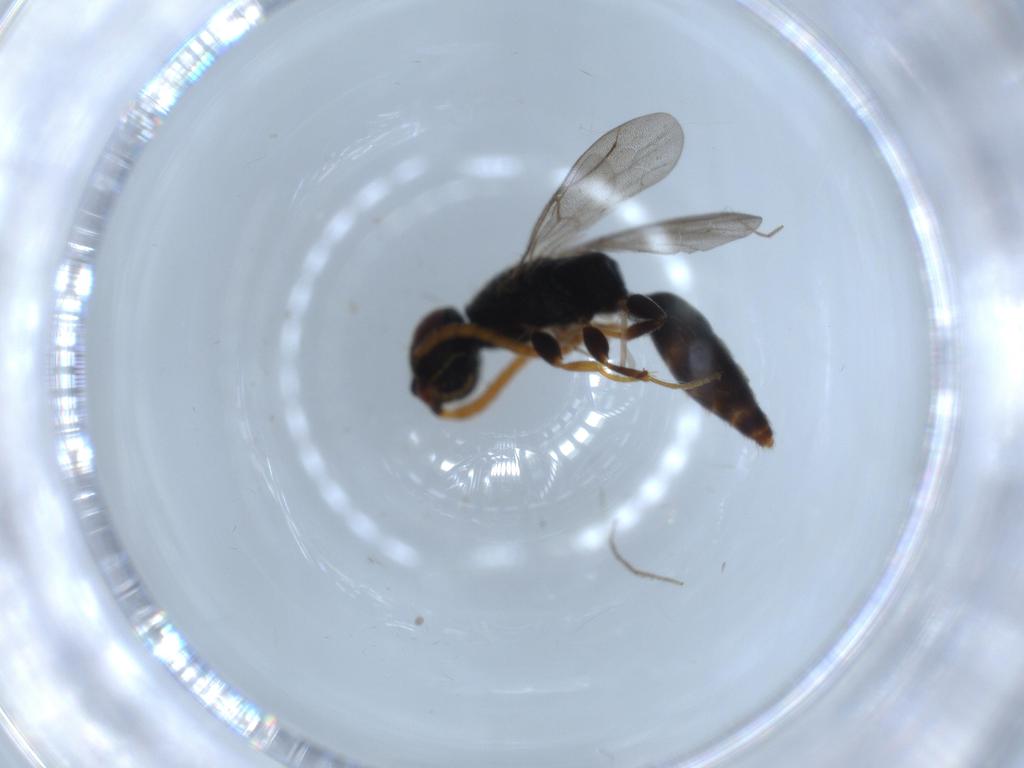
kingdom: Animalia
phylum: Arthropoda
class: Insecta
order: Hymenoptera
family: Bethylidae
